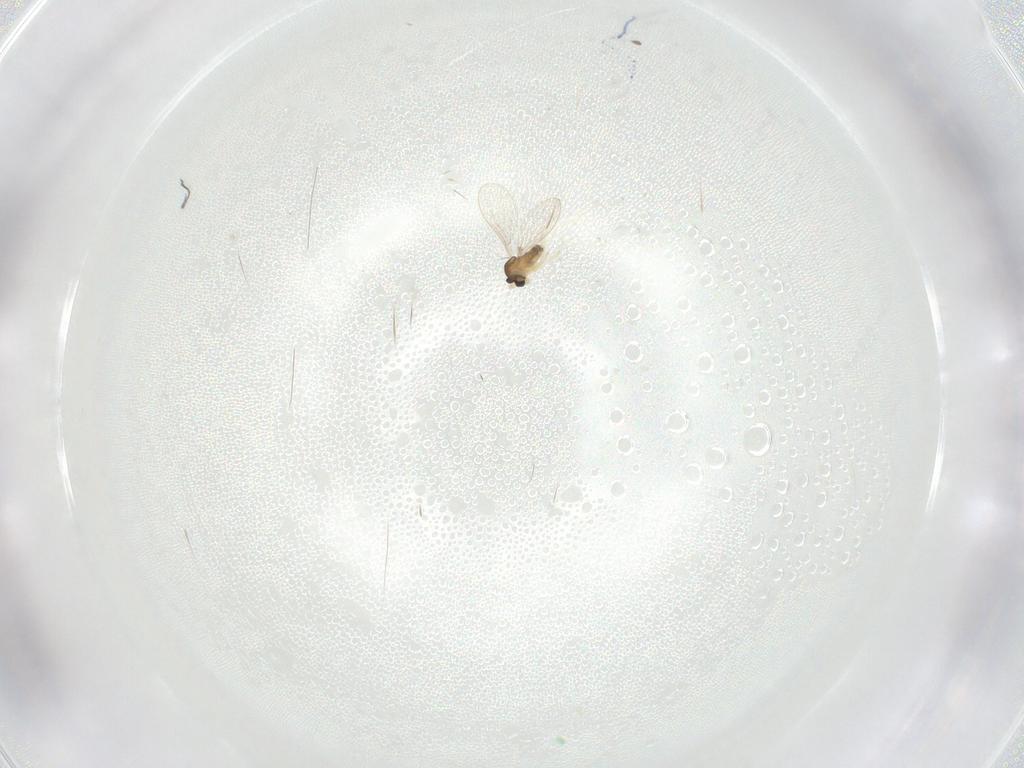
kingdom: Animalia
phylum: Arthropoda
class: Insecta
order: Diptera
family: Cecidomyiidae
